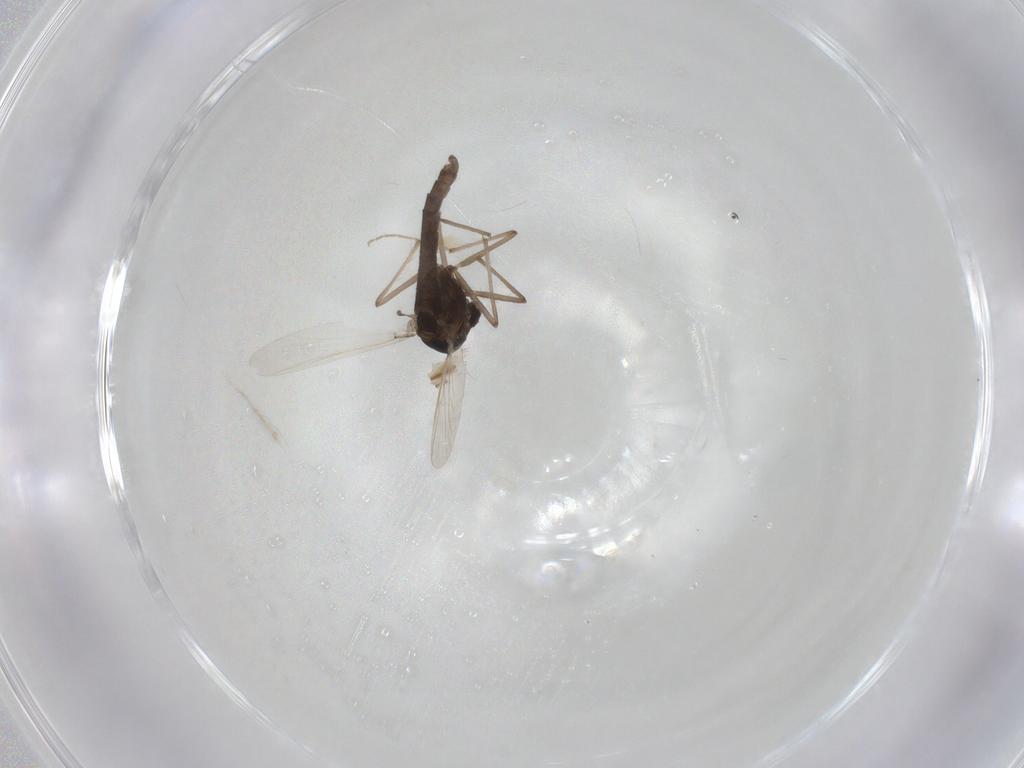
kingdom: Animalia
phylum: Arthropoda
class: Insecta
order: Diptera
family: Chironomidae
